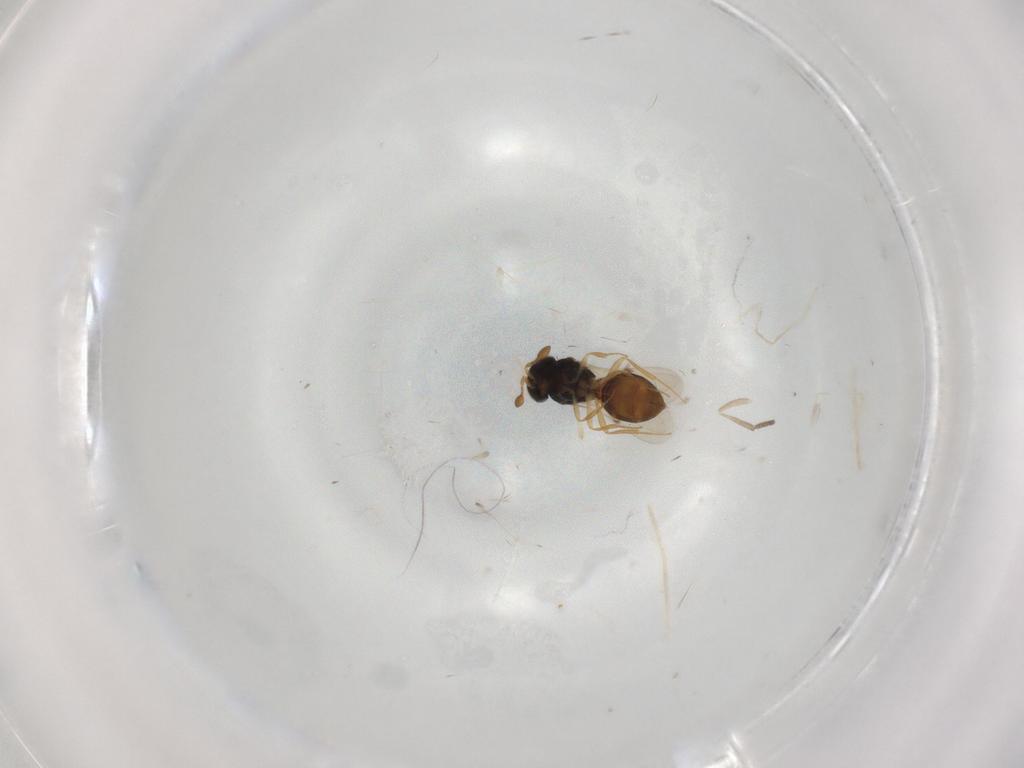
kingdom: Animalia
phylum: Arthropoda
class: Insecta
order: Hymenoptera
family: Scelionidae
